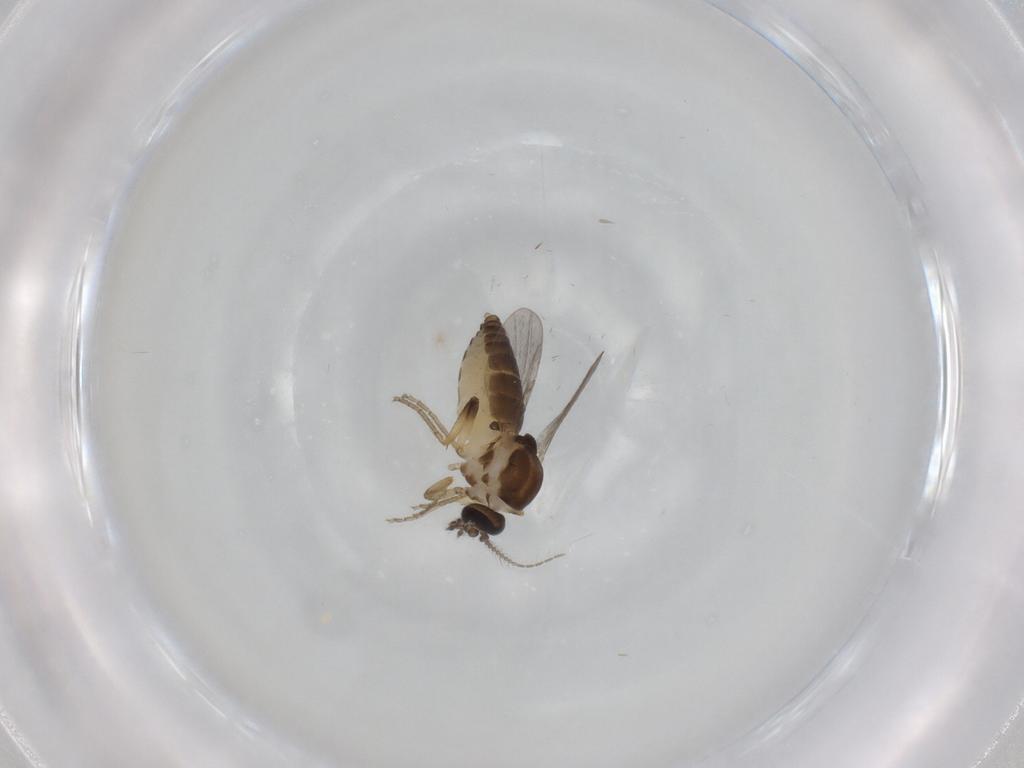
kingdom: Animalia
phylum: Arthropoda
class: Insecta
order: Diptera
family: Ceratopogonidae
